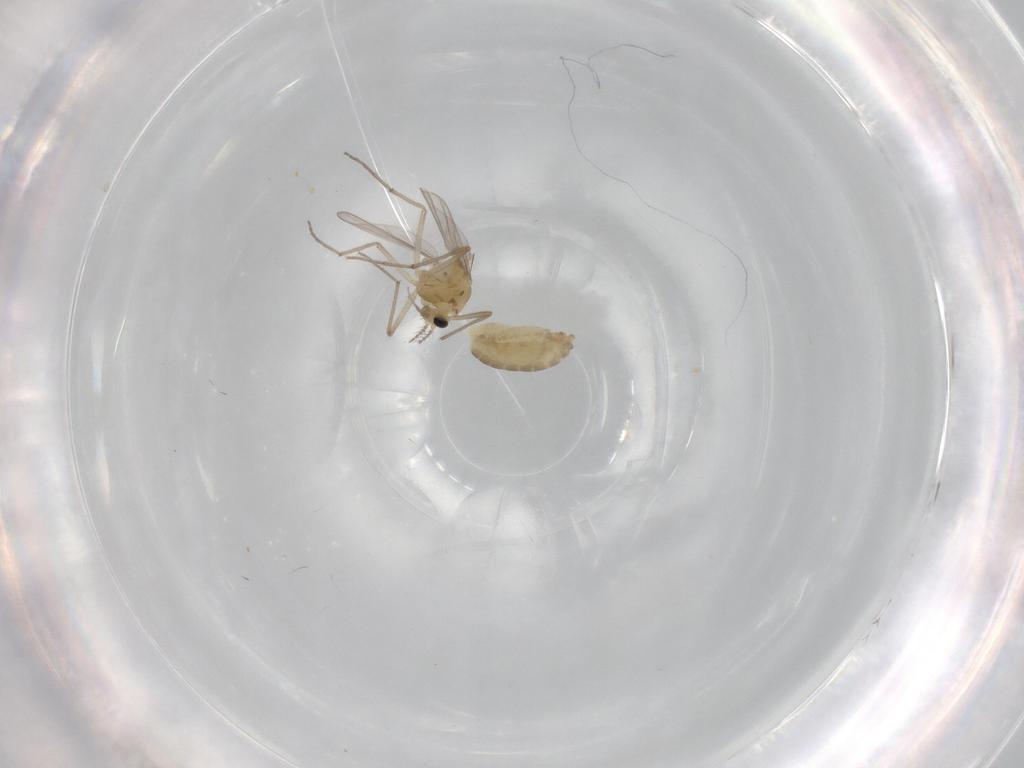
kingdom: Animalia
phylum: Arthropoda
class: Insecta
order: Diptera
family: Chironomidae
